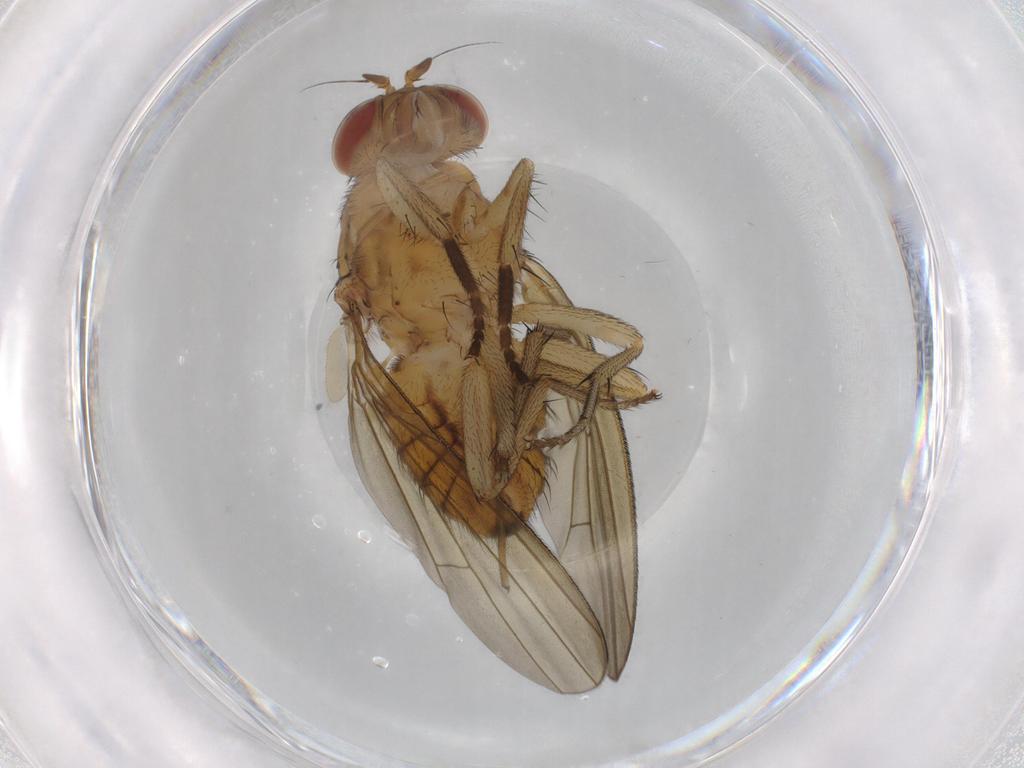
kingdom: Animalia
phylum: Arthropoda
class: Insecta
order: Diptera
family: Limoniidae
